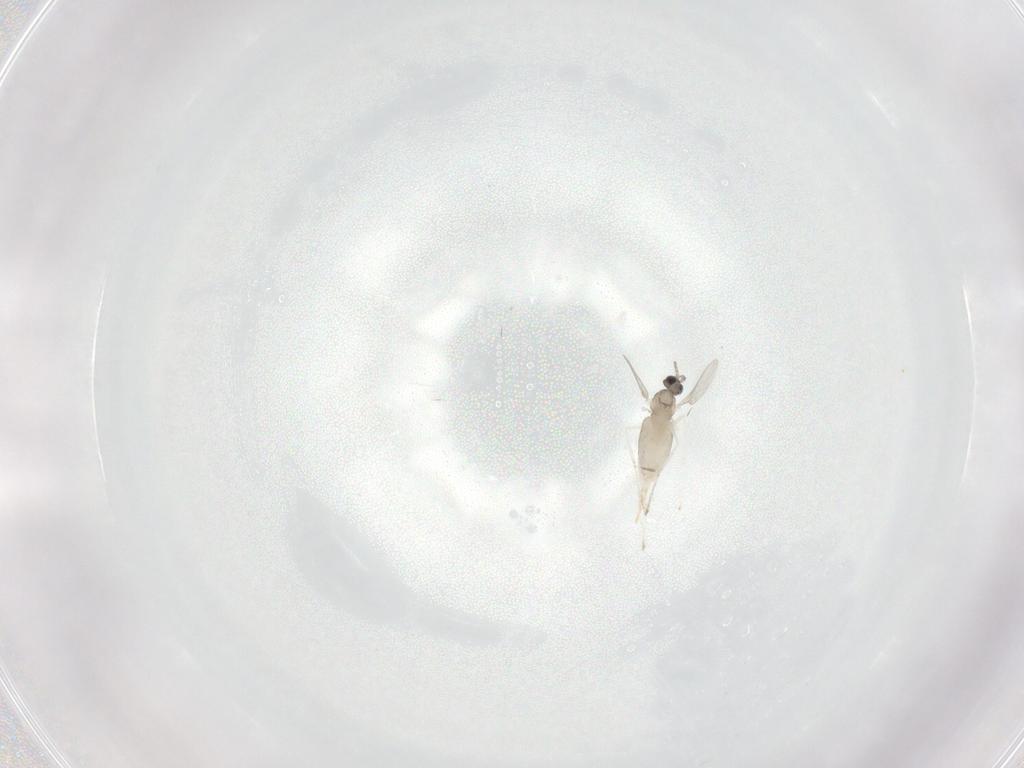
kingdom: Animalia
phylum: Arthropoda
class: Insecta
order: Diptera
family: Cecidomyiidae
